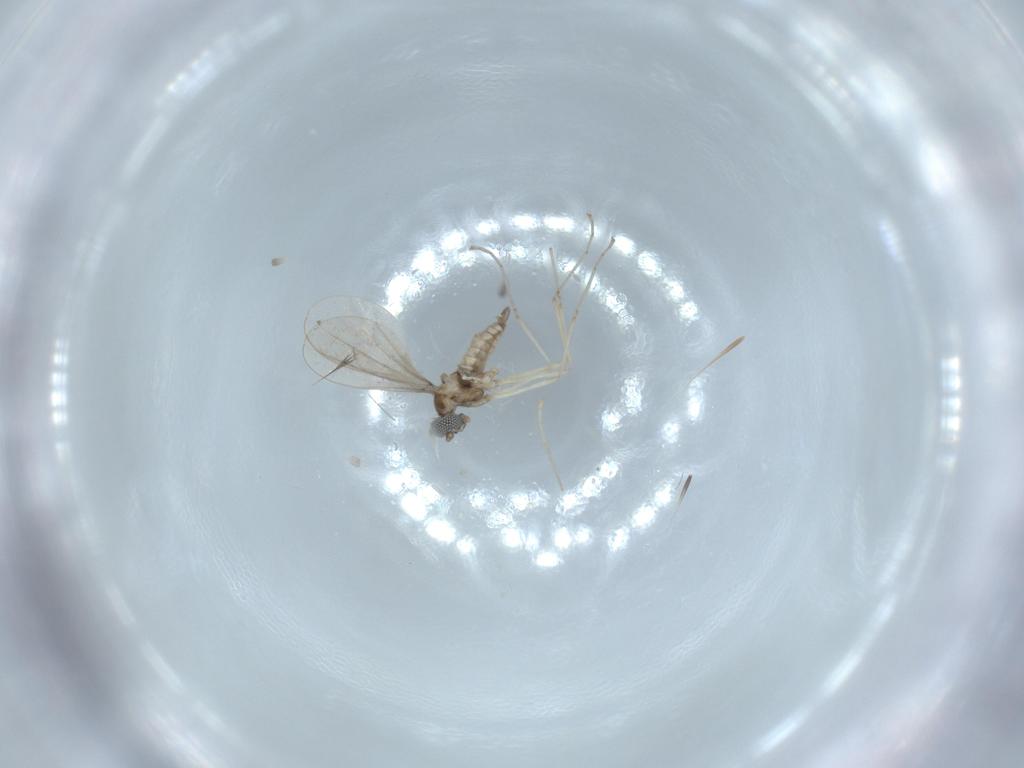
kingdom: Animalia
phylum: Arthropoda
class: Insecta
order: Diptera
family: Cecidomyiidae
